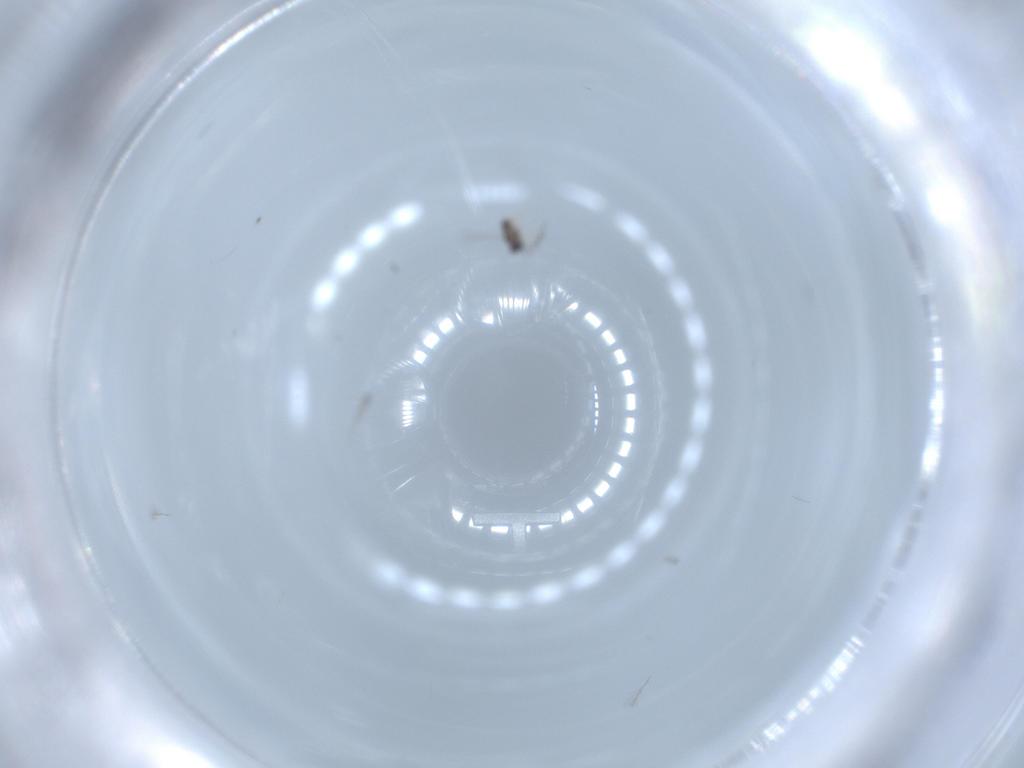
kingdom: Animalia
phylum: Arthropoda
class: Insecta
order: Hymenoptera
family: Mymaridae
